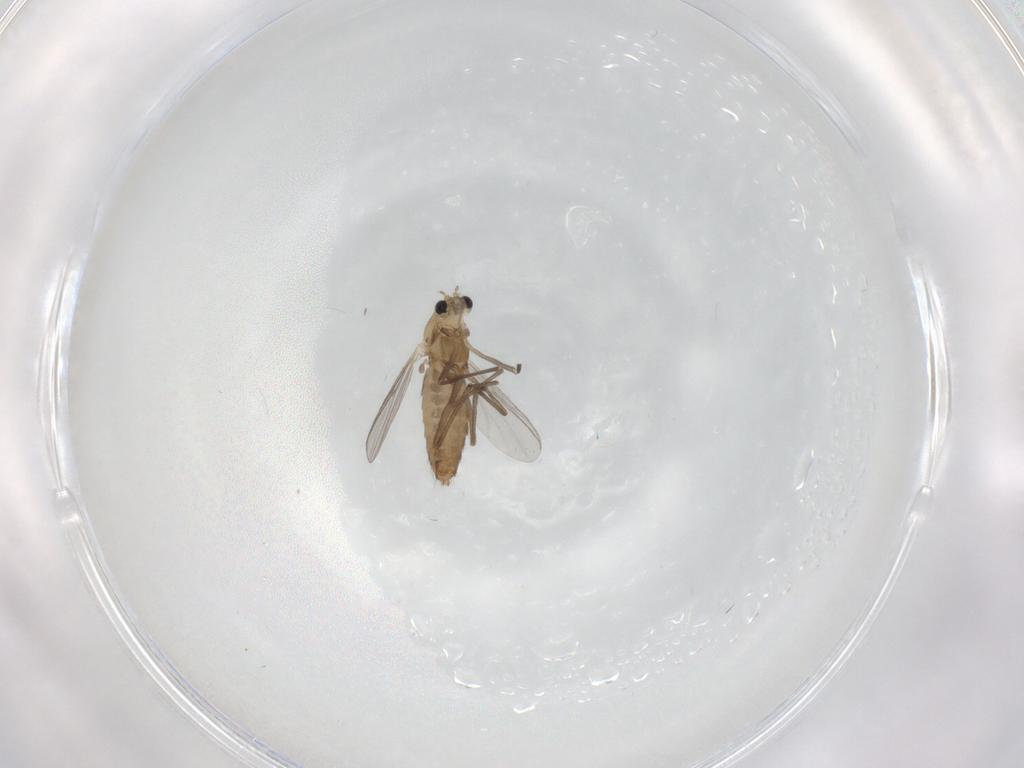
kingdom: Animalia
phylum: Arthropoda
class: Insecta
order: Diptera
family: Chironomidae
